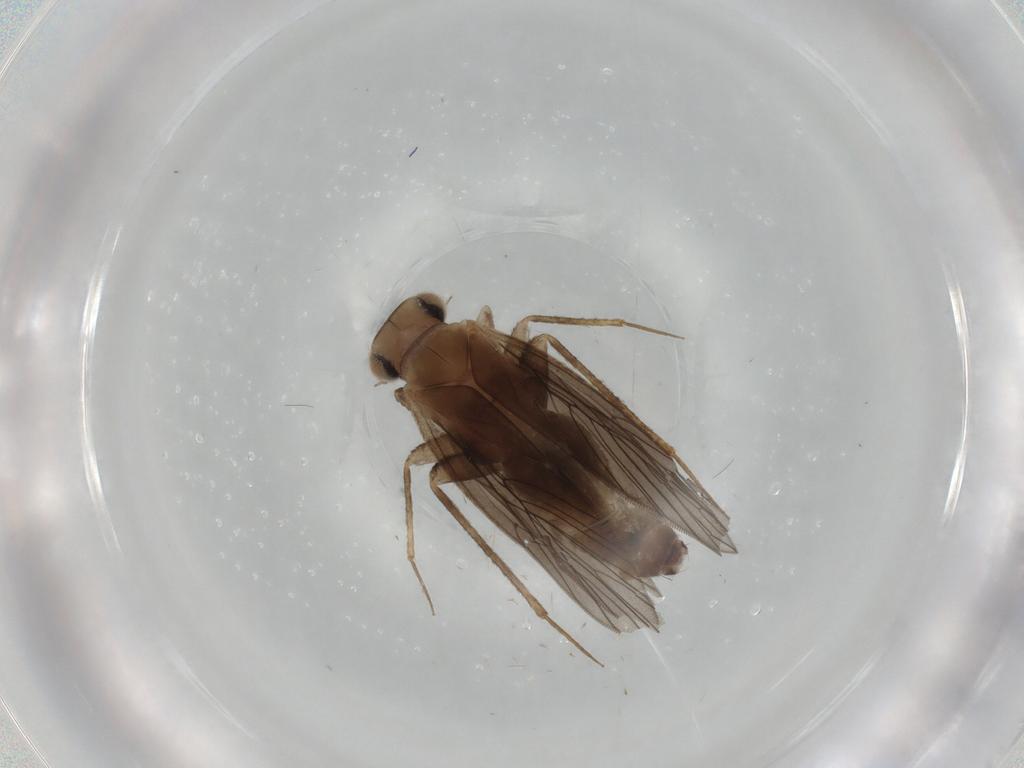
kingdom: Animalia
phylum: Arthropoda
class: Insecta
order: Psocodea
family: Lepidopsocidae
